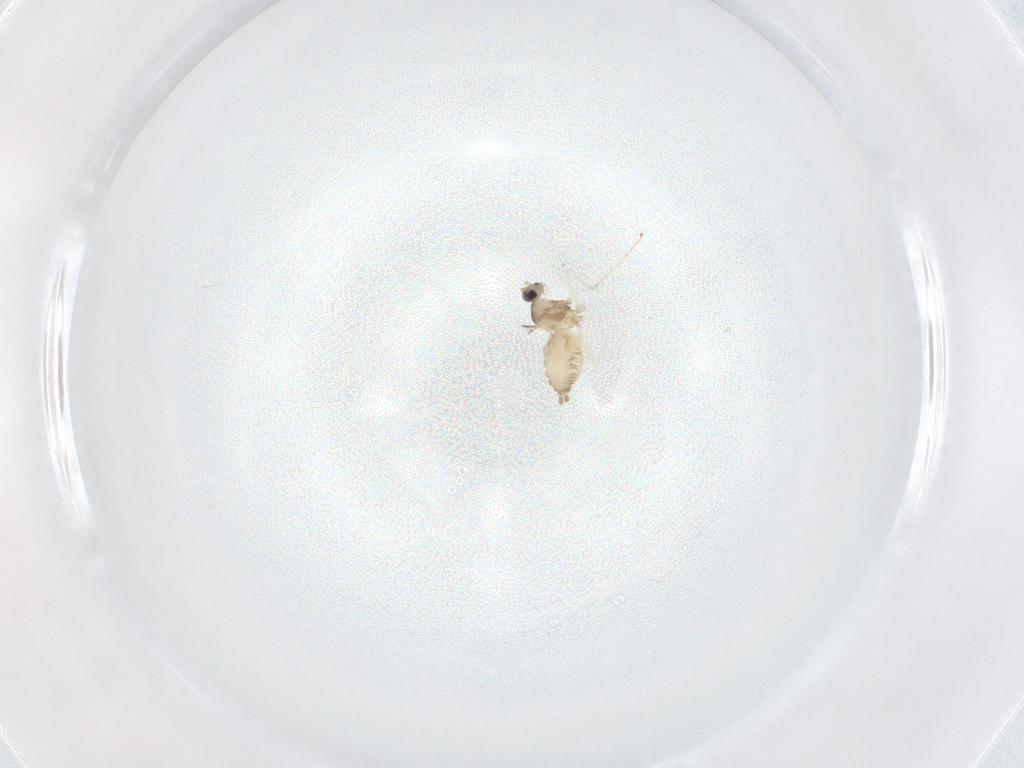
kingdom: Animalia
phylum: Arthropoda
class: Insecta
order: Diptera
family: Cecidomyiidae
